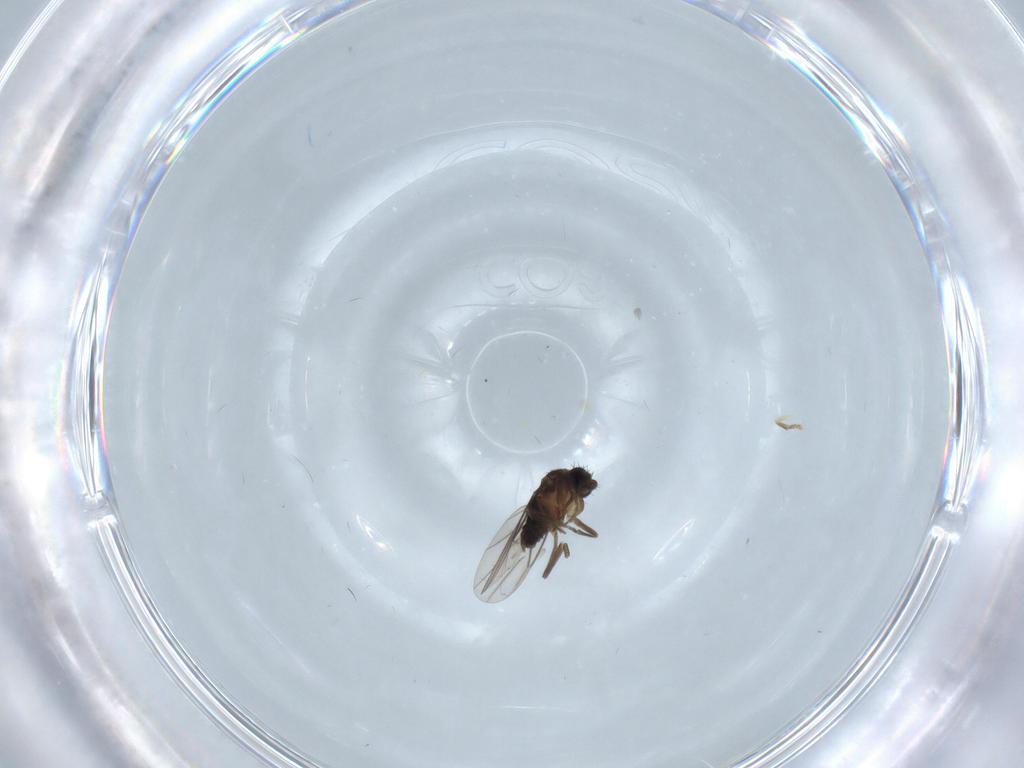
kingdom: Animalia
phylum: Arthropoda
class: Insecta
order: Diptera
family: Phoridae
